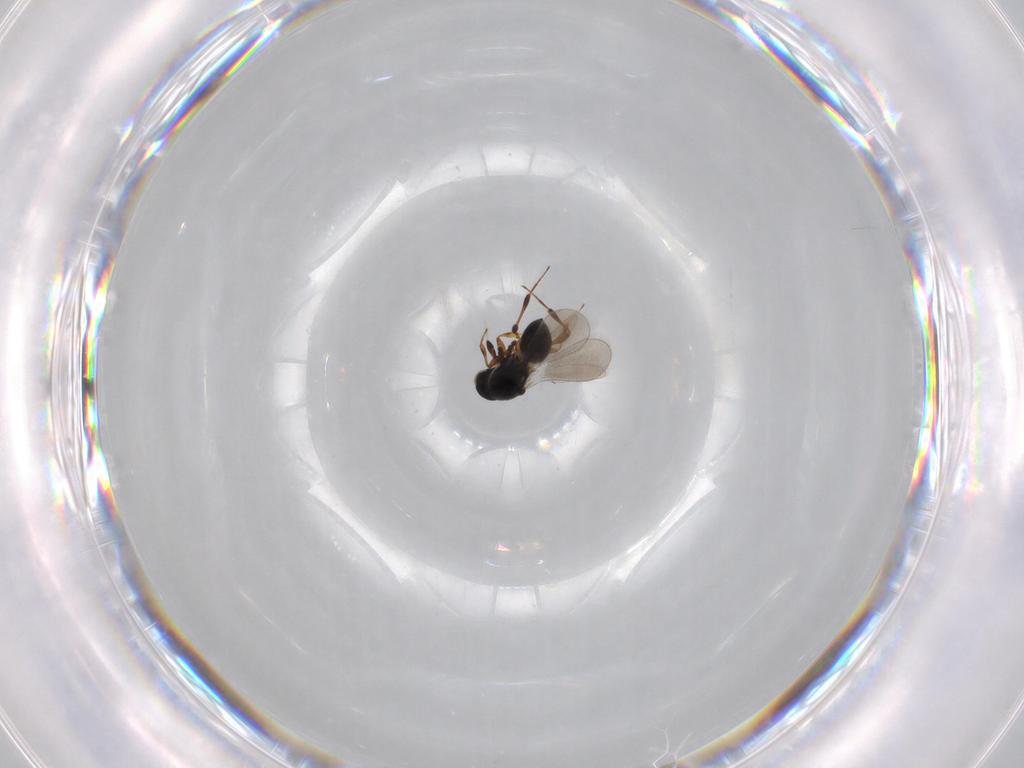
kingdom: Animalia
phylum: Arthropoda
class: Insecta
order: Hymenoptera
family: Platygastridae
